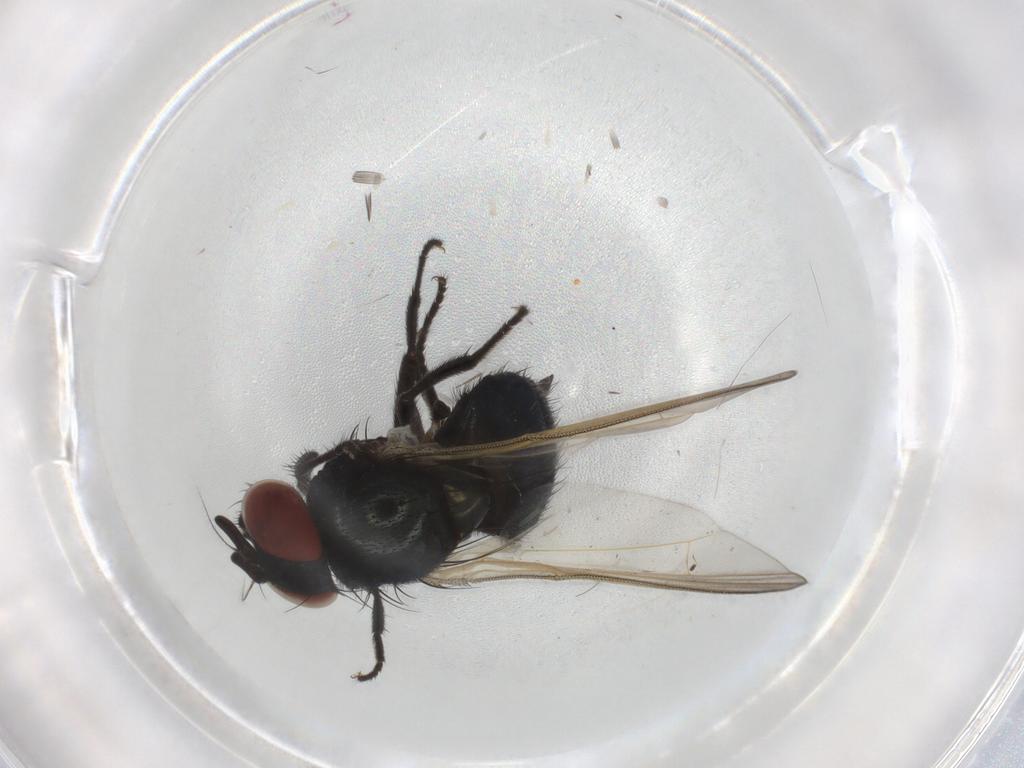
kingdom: Animalia
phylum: Arthropoda
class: Insecta
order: Diptera
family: Lonchaeidae
